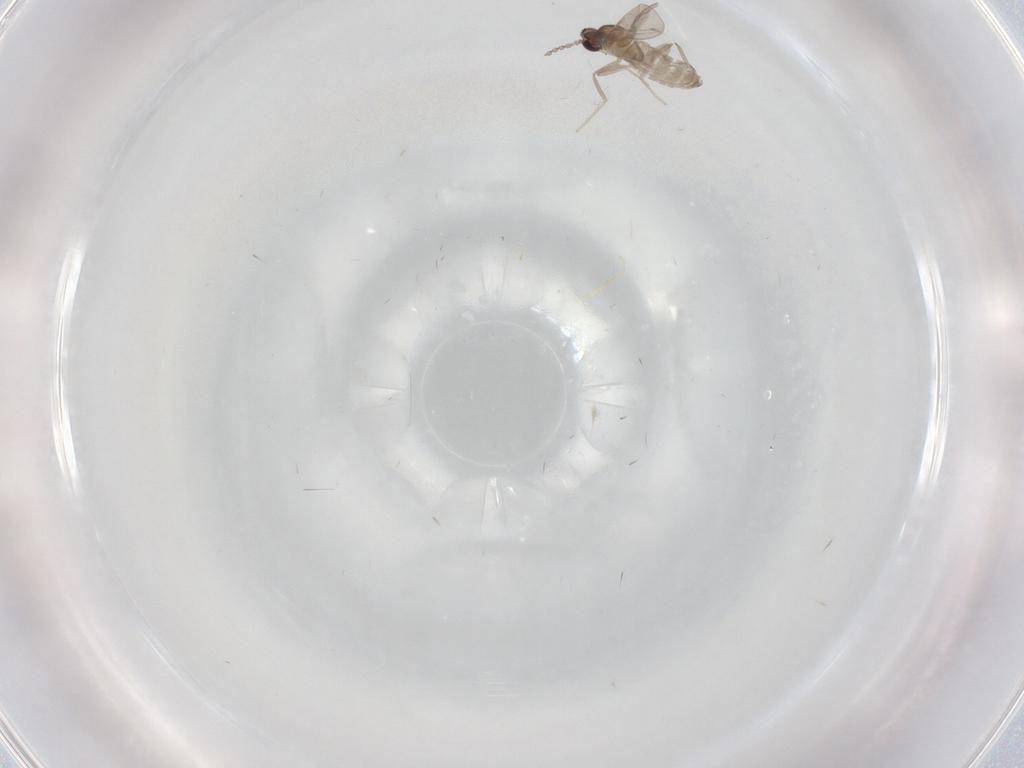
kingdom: Animalia
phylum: Arthropoda
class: Insecta
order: Diptera
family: Cecidomyiidae
